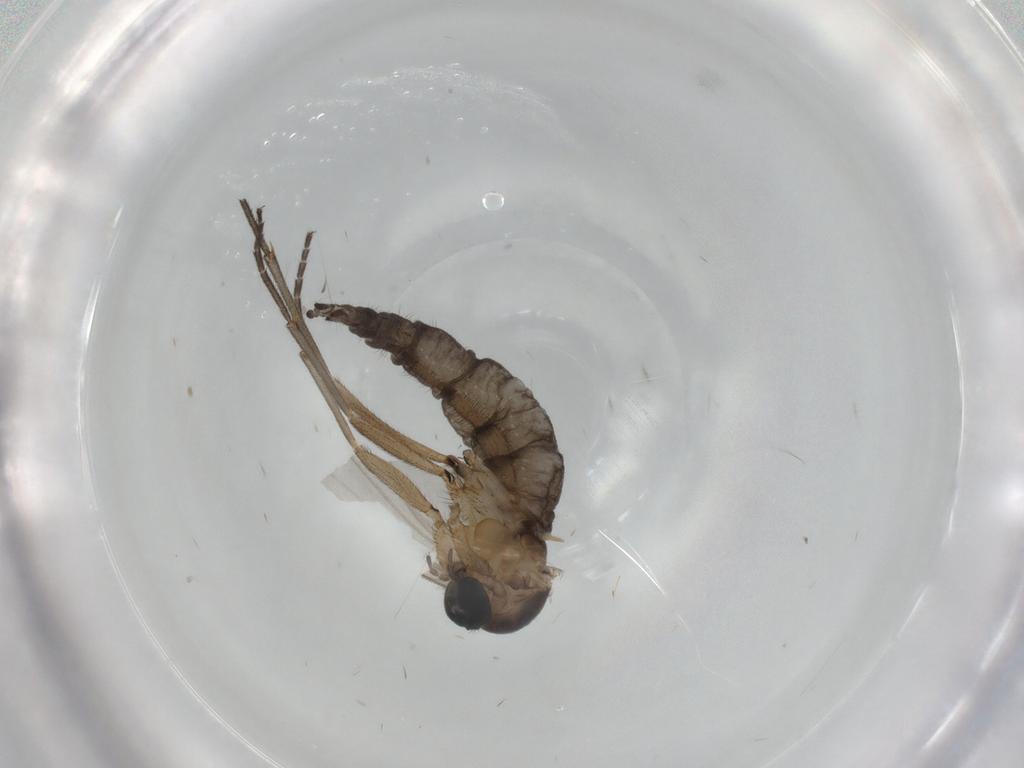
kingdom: Animalia
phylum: Arthropoda
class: Insecta
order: Diptera
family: Sciaridae
